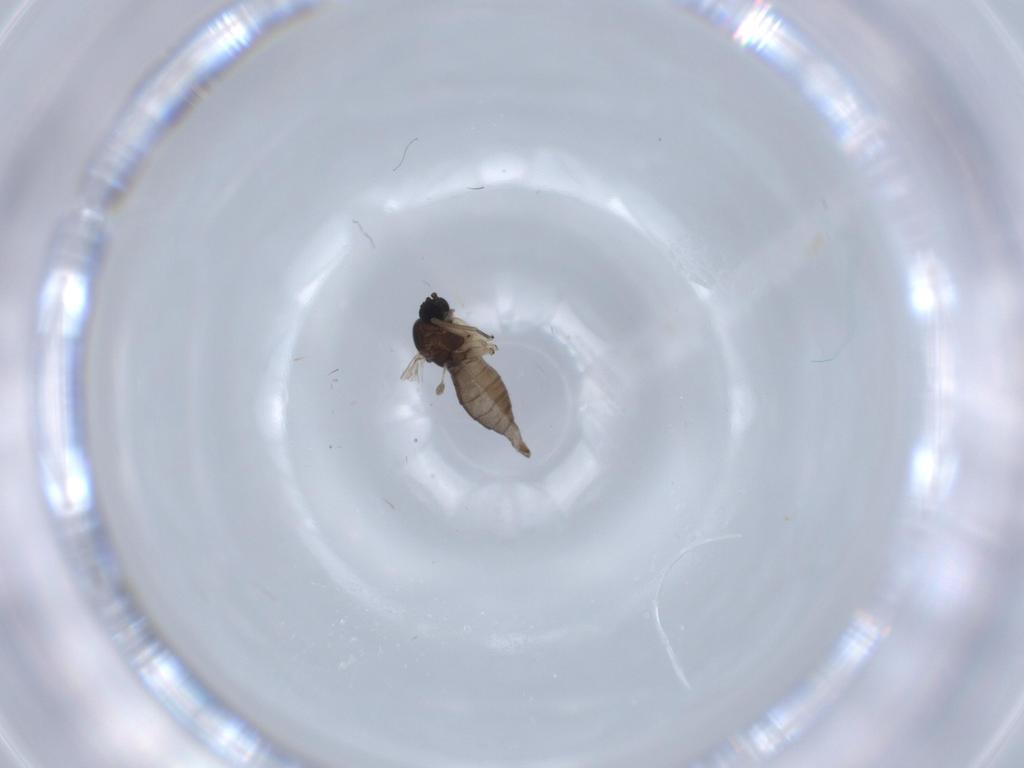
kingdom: Animalia
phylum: Arthropoda
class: Insecta
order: Diptera
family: Sciaridae
